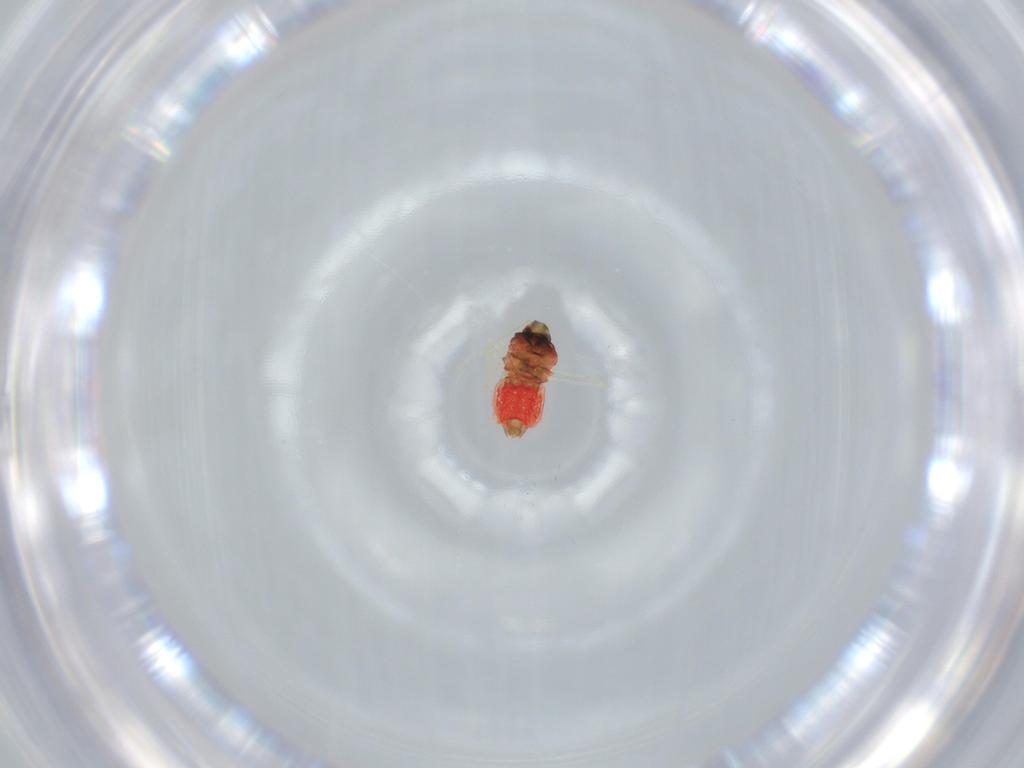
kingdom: Animalia
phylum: Arthropoda
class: Insecta
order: Hemiptera
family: Aleyrodidae
